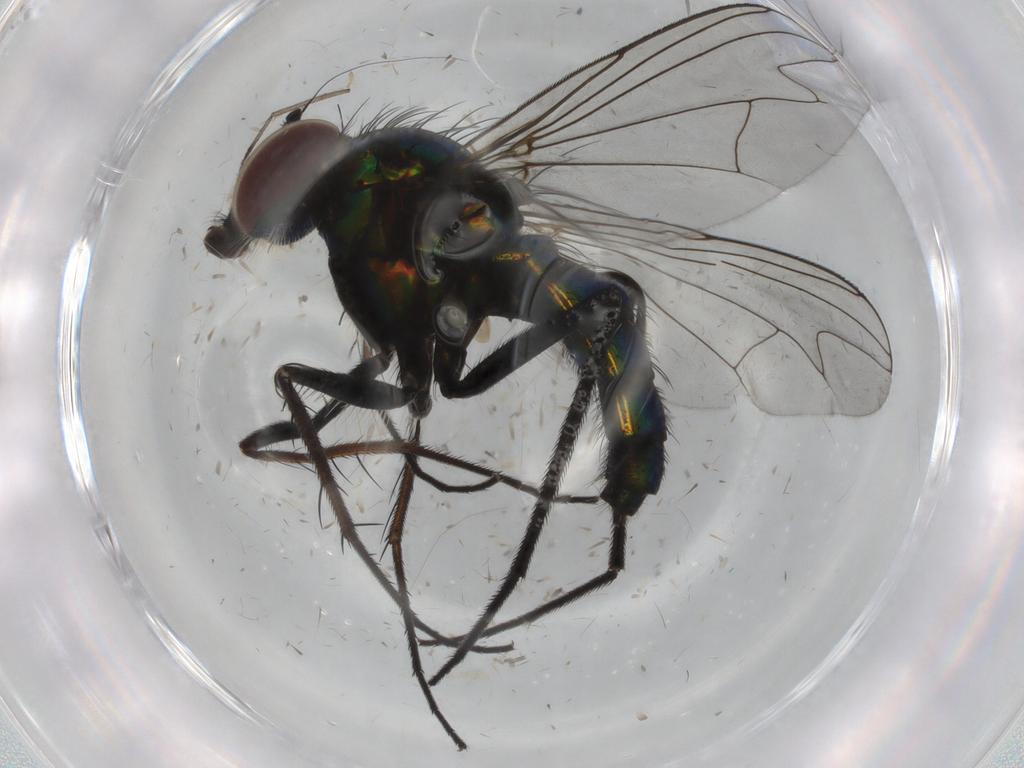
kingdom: Animalia
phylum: Arthropoda
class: Insecta
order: Diptera
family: Dolichopodidae
